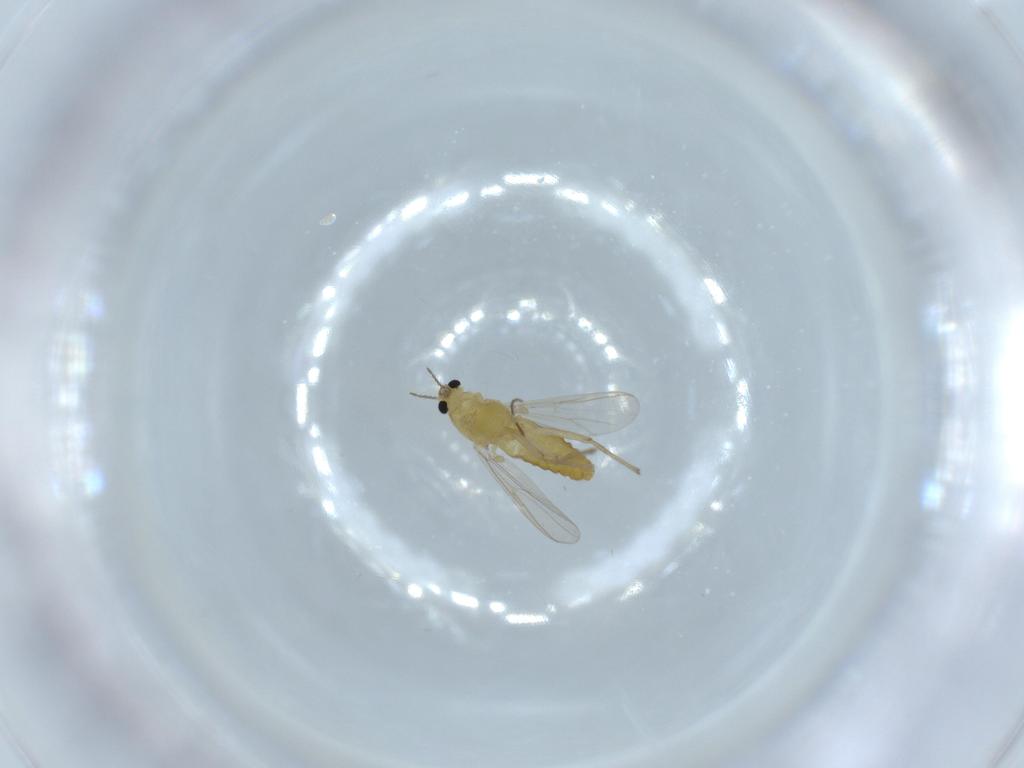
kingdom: Animalia
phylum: Arthropoda
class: Insecta
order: Diptera
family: Chironomidae
